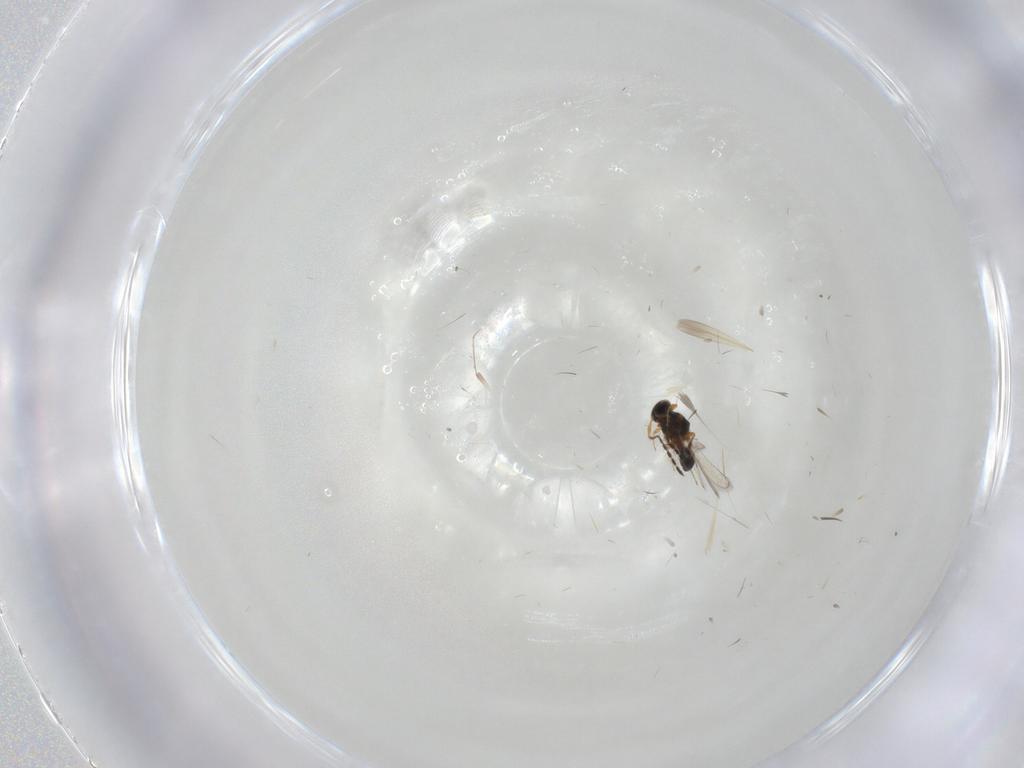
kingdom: Animalia
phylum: Arthropoda
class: Insecta
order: Hymenoptera
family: Platygastridae
